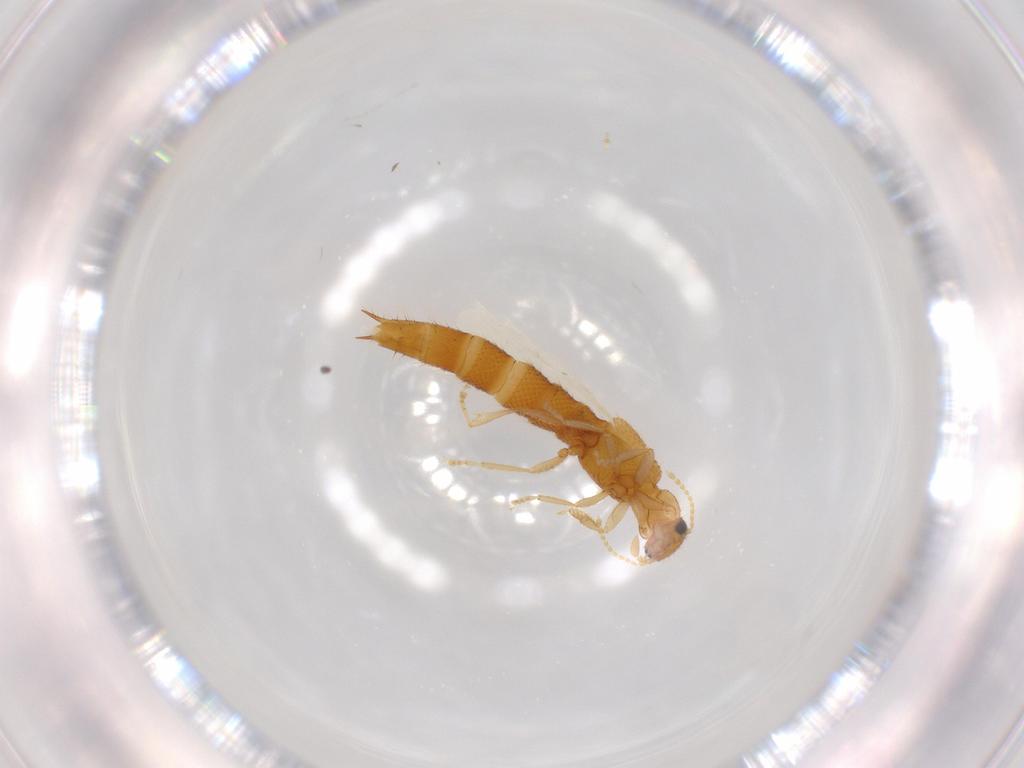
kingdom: Animalia
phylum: Arthropoda
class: Insecta
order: Coleoptera
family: Staphylinidae
